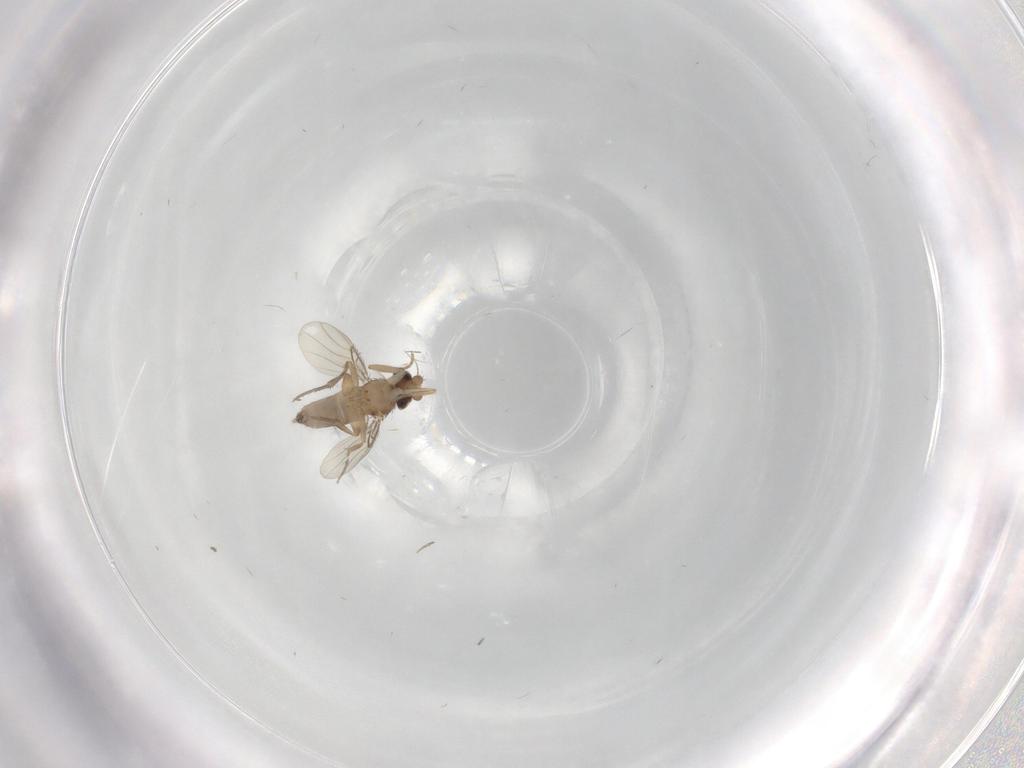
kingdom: Animalia
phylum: Arthropoda
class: Insecta
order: Diptera
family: Phoridae
